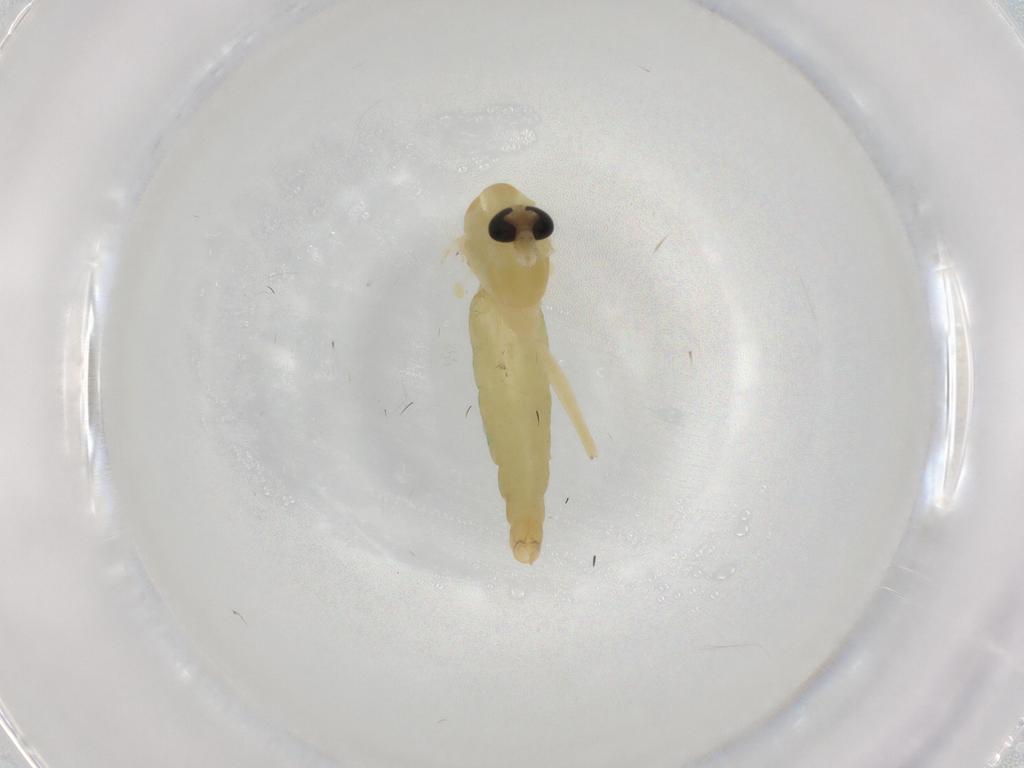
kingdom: Animalia
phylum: Arthropoda
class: Insecta
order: Diptera
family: Chironomidae
